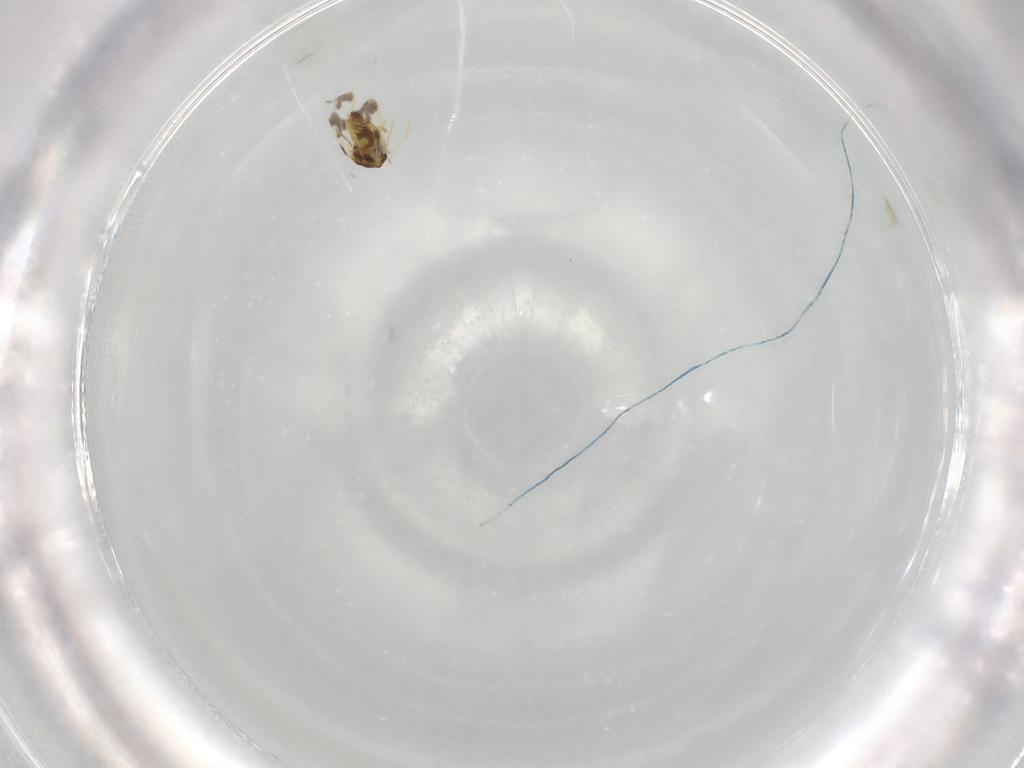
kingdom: Animalia
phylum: Arthropoda
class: Insecta
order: Hemiptera
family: Aleyrodidae
